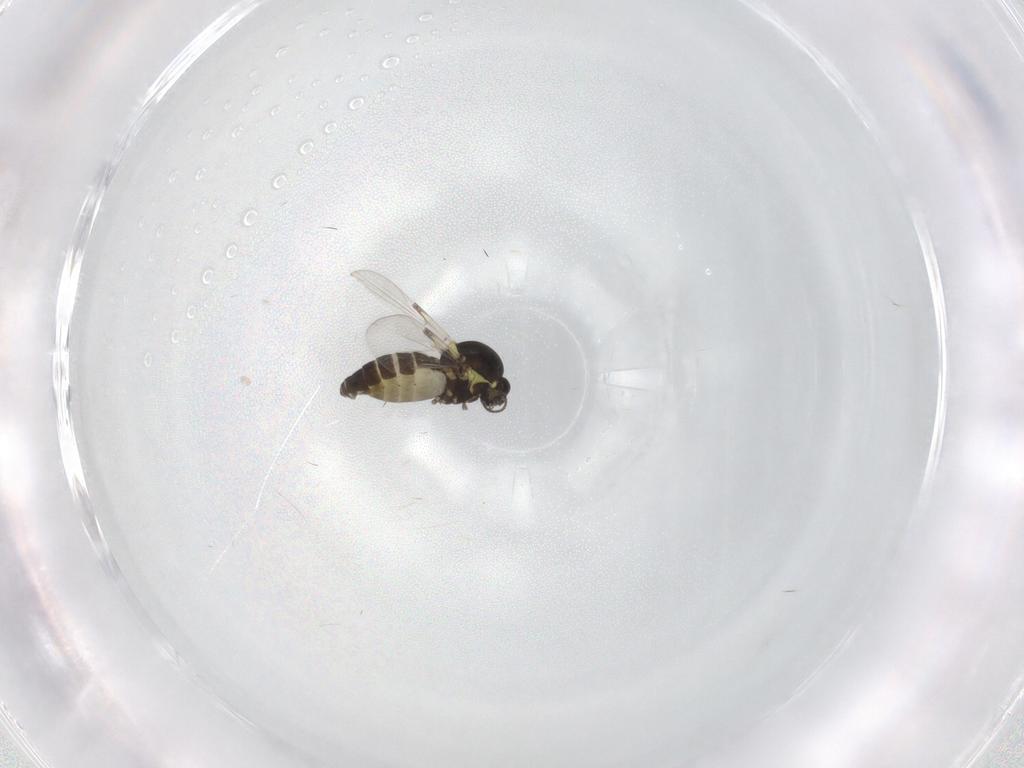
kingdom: Animalia
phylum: Arthropoda
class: Insecta
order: Diptera
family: Ceratopogonidae
